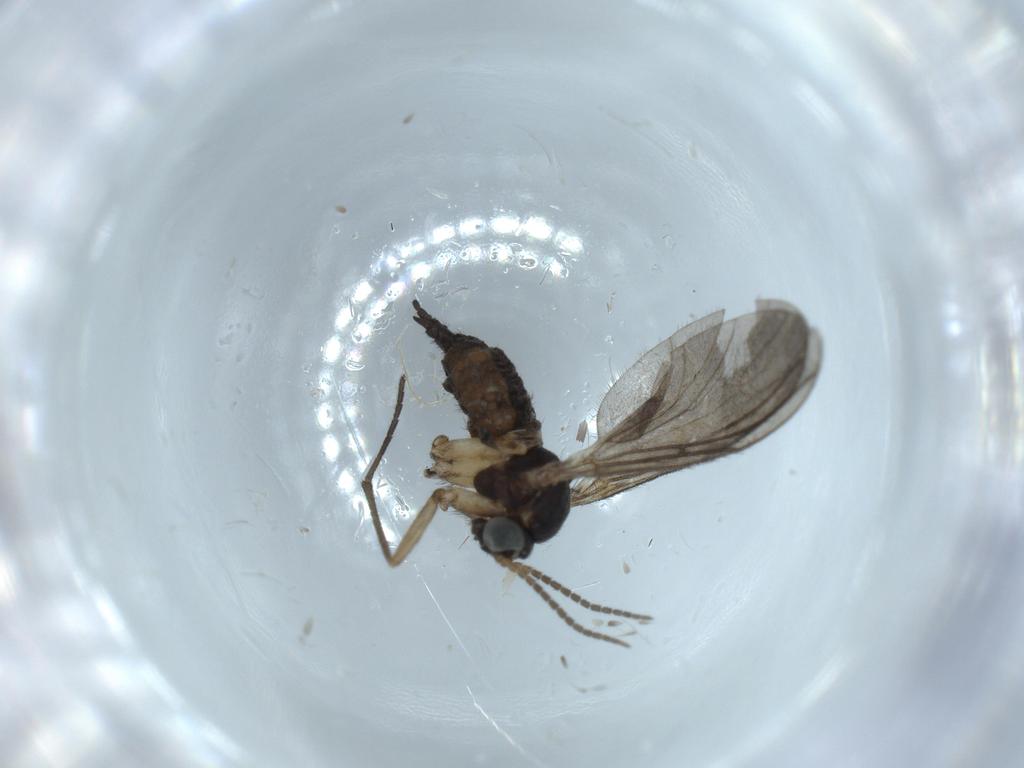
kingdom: Animalia
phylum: Arthropoda
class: Insecta
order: Diptera
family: Sciaridae
